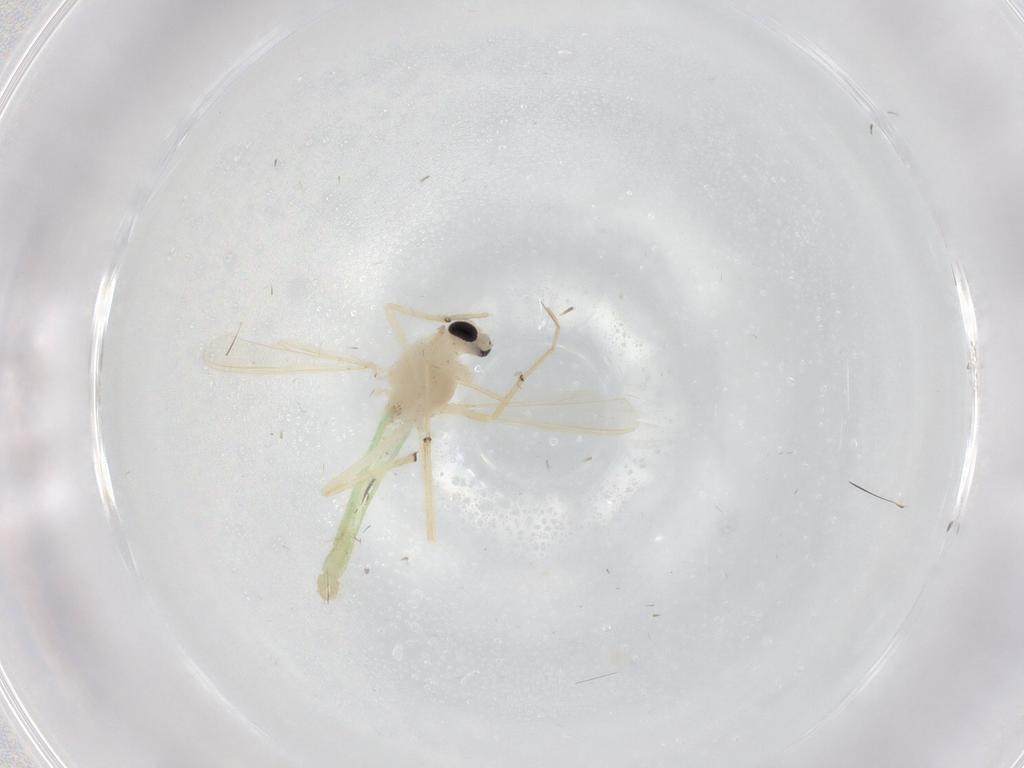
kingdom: Animalia
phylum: Arthropoda
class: Insecta
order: Diptera
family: Chironomidae
